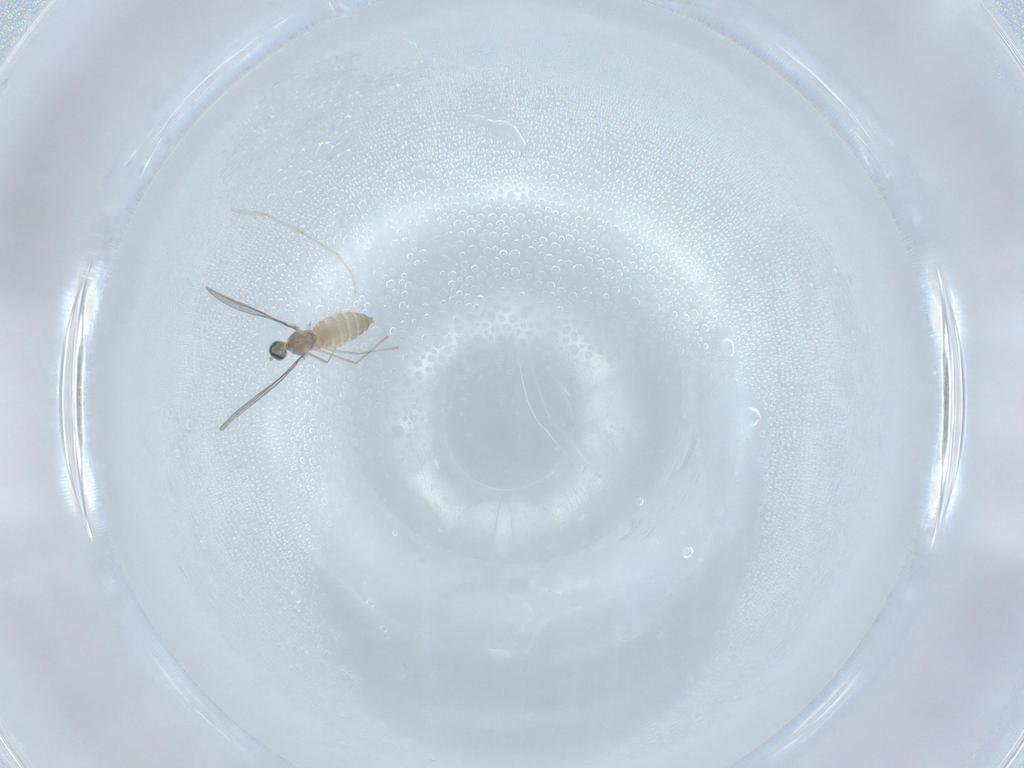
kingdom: Animalia
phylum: Arthropoda
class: Insecta
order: Diptera
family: Cecidomyiidae
